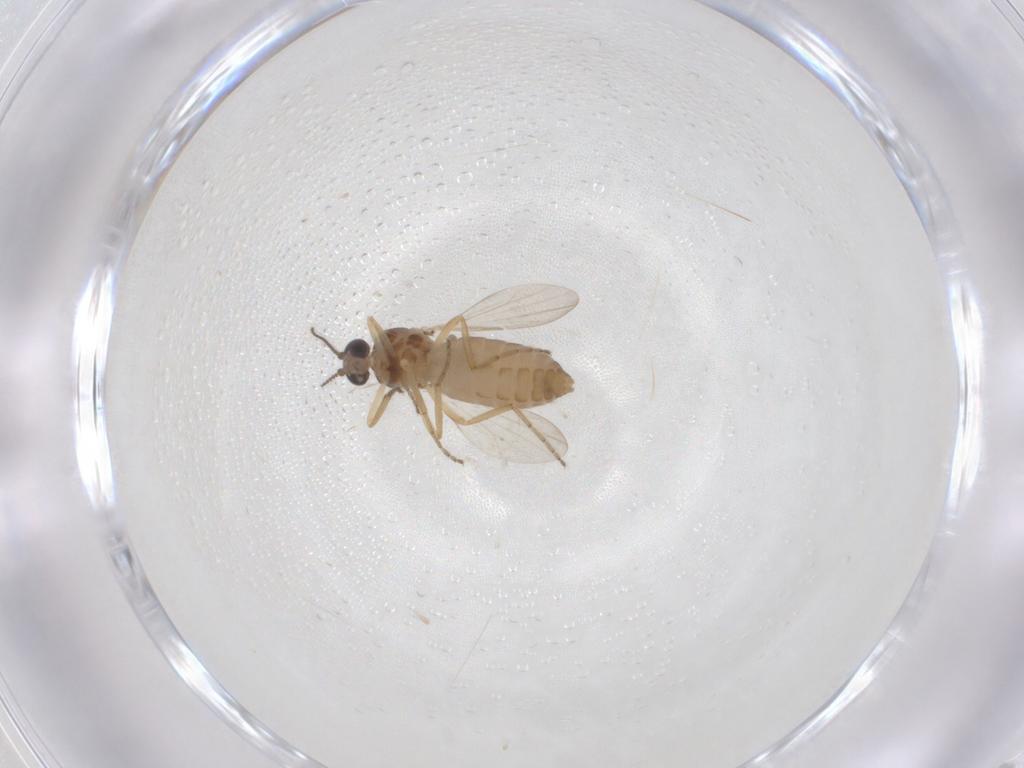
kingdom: Animalia
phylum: Arthropoda
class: Insecta
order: Diptera
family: Ceratopogonidae
